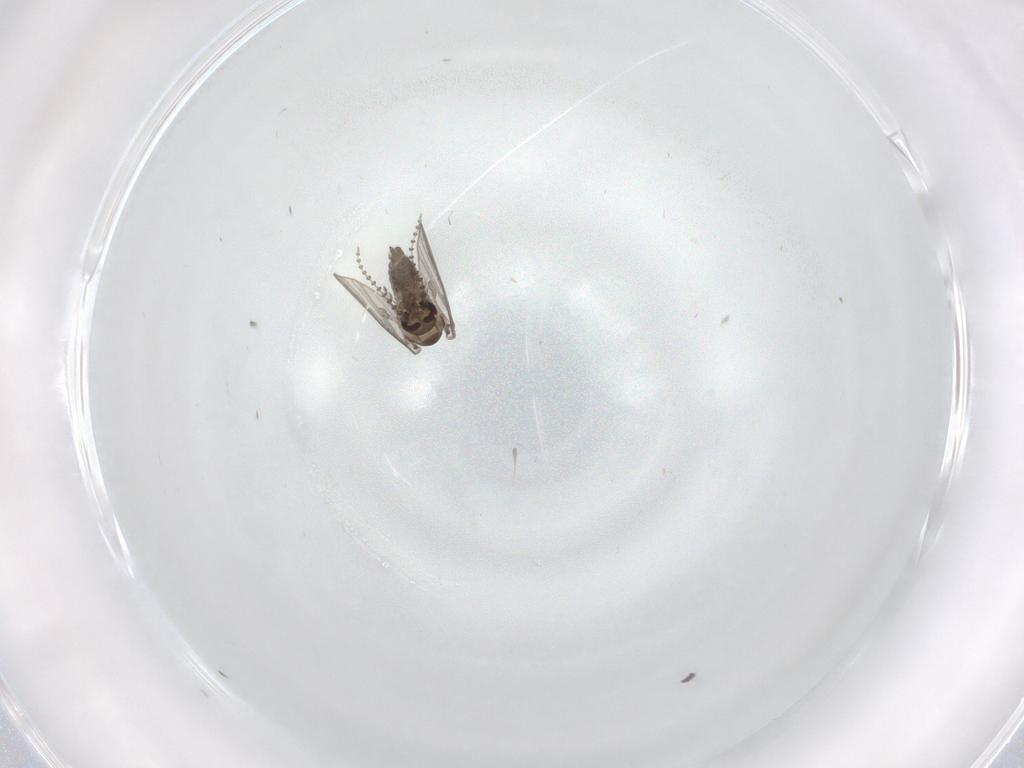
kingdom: Animalia
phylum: Arthropoda
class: Insecta
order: Diptera
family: Psychodidae
